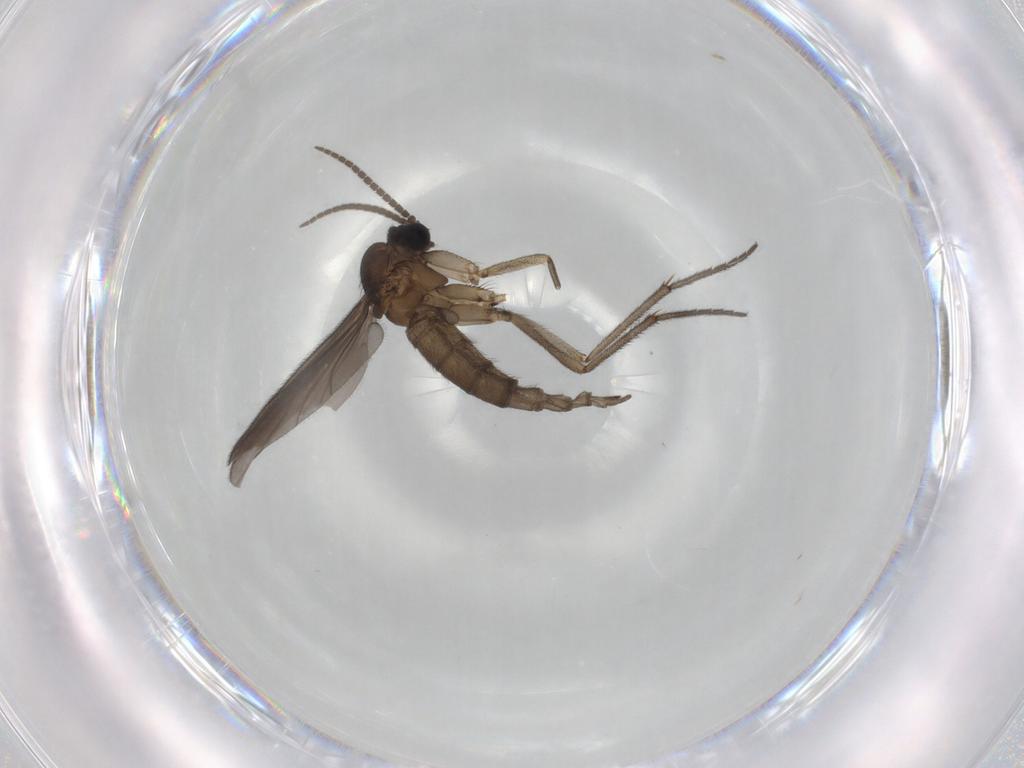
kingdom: Animalia
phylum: Arthropoda
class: Insecta
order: Diptera
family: Sciaridae
